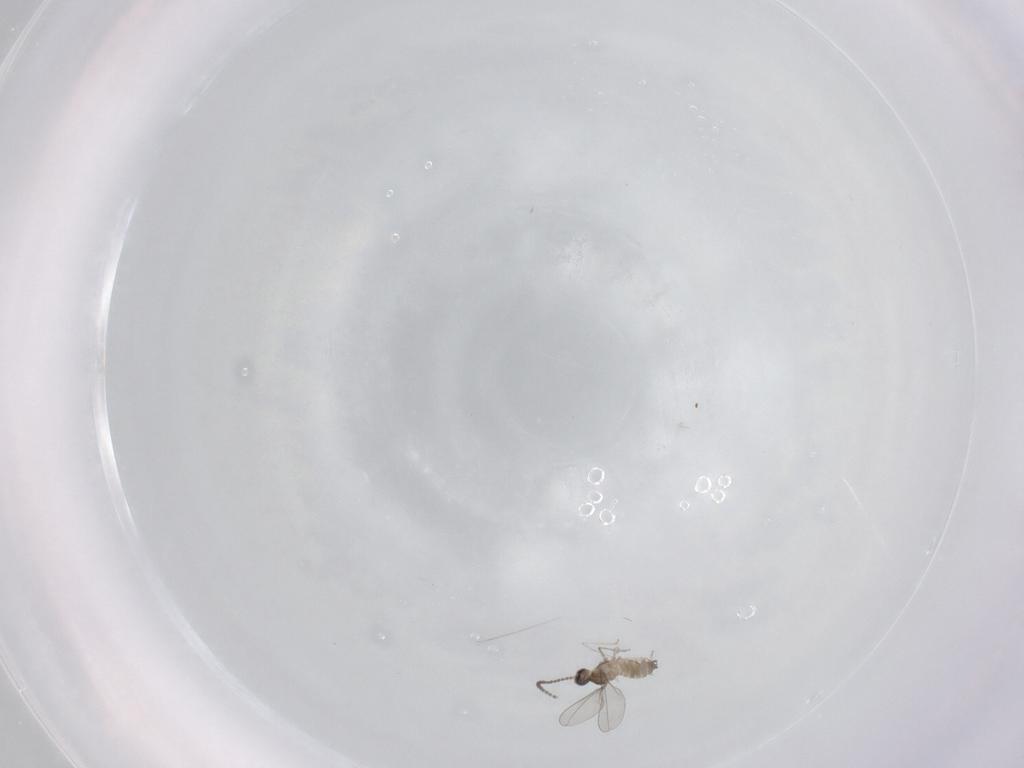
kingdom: Animalia
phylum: Arthropoda
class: Insecta
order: Diptera
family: Cecidomyiidae
